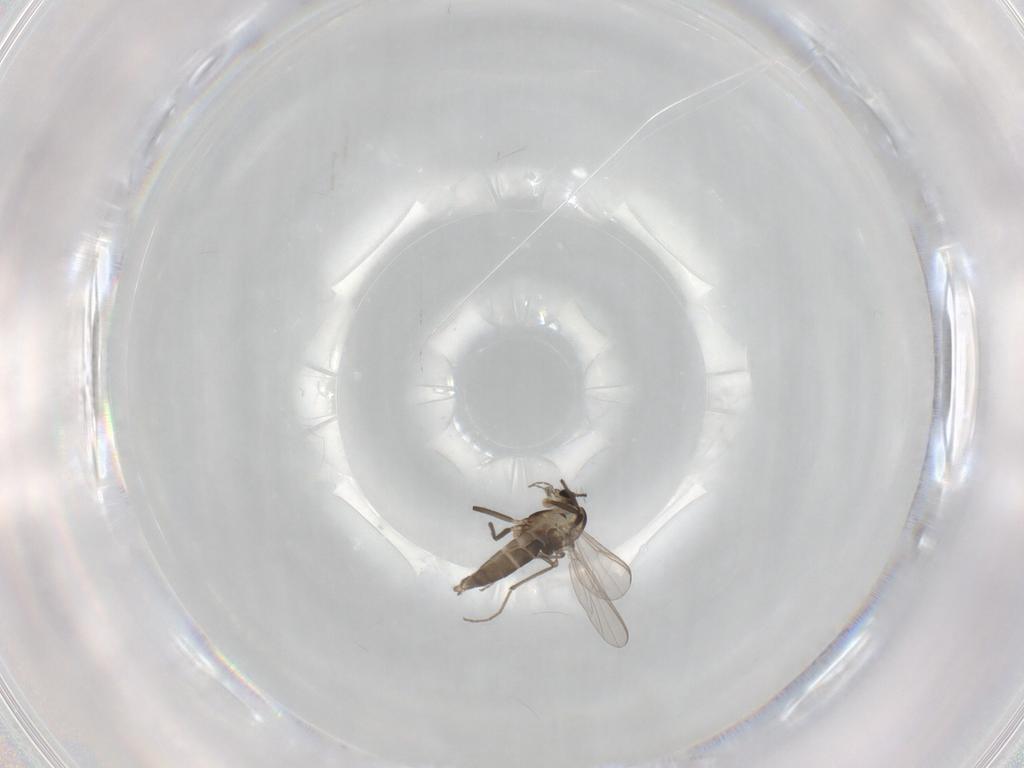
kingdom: Animalia
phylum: Arthropoda
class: Insecta
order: Diptera
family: Chironomidae
